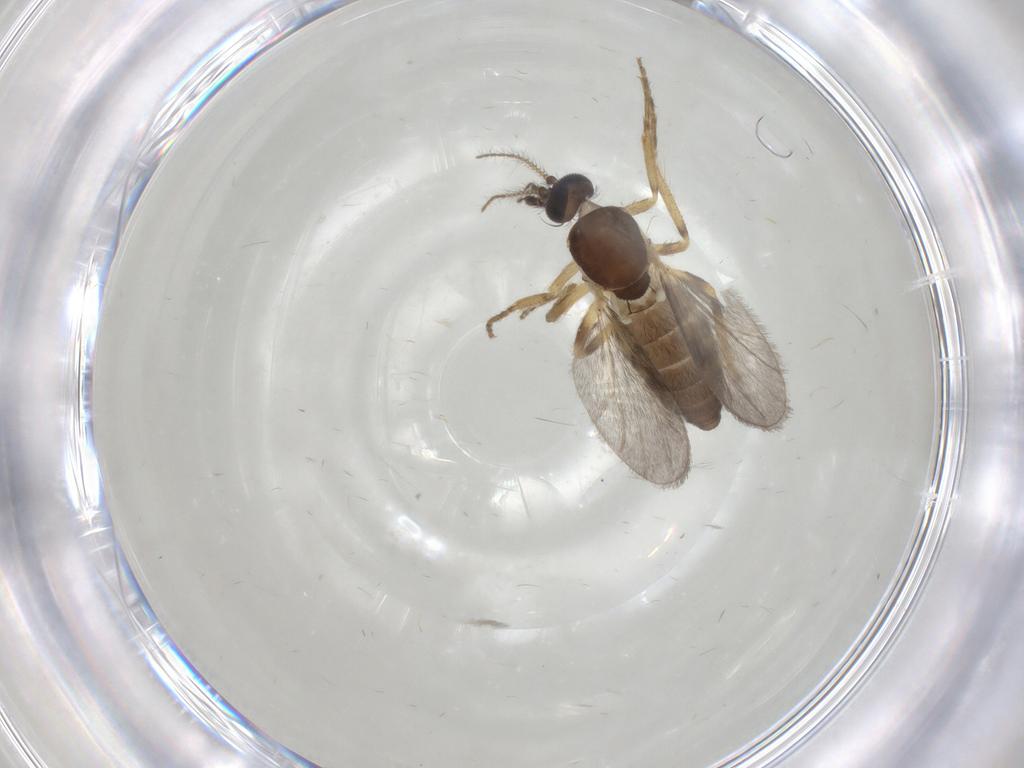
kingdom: Animalia
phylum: Arthropoda
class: Insecta
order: Diptera
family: Ceratopogonidae
